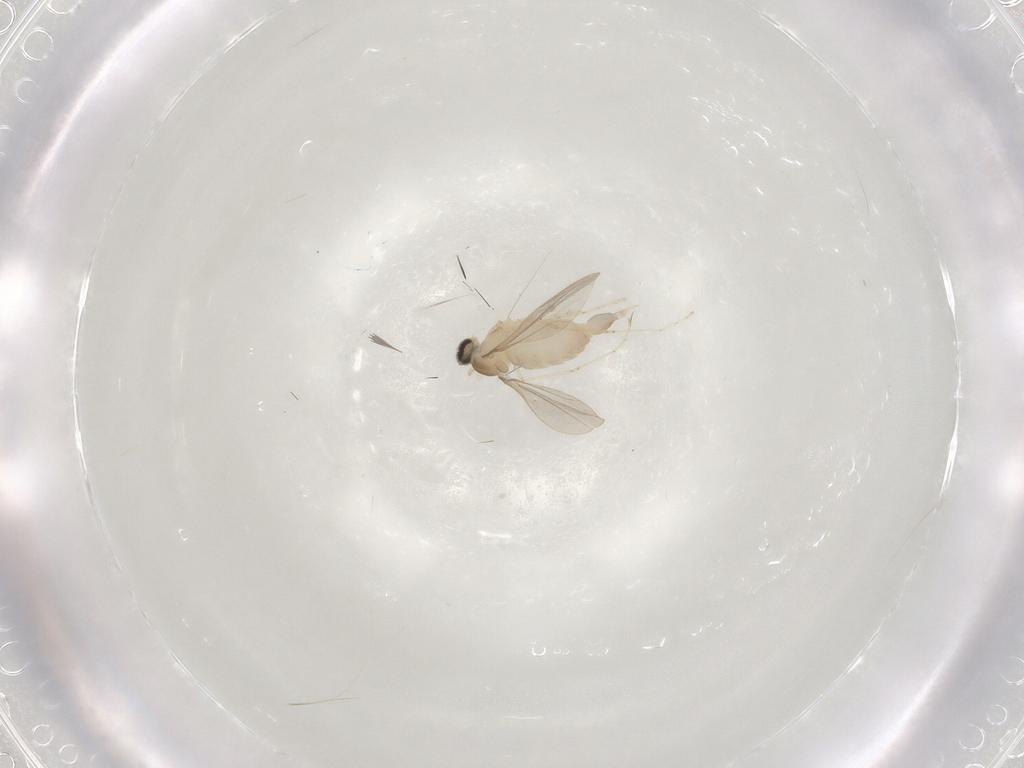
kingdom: Animalia
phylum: Arthropoda
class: Insecta
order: Diptera
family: Cecidomyiidae
